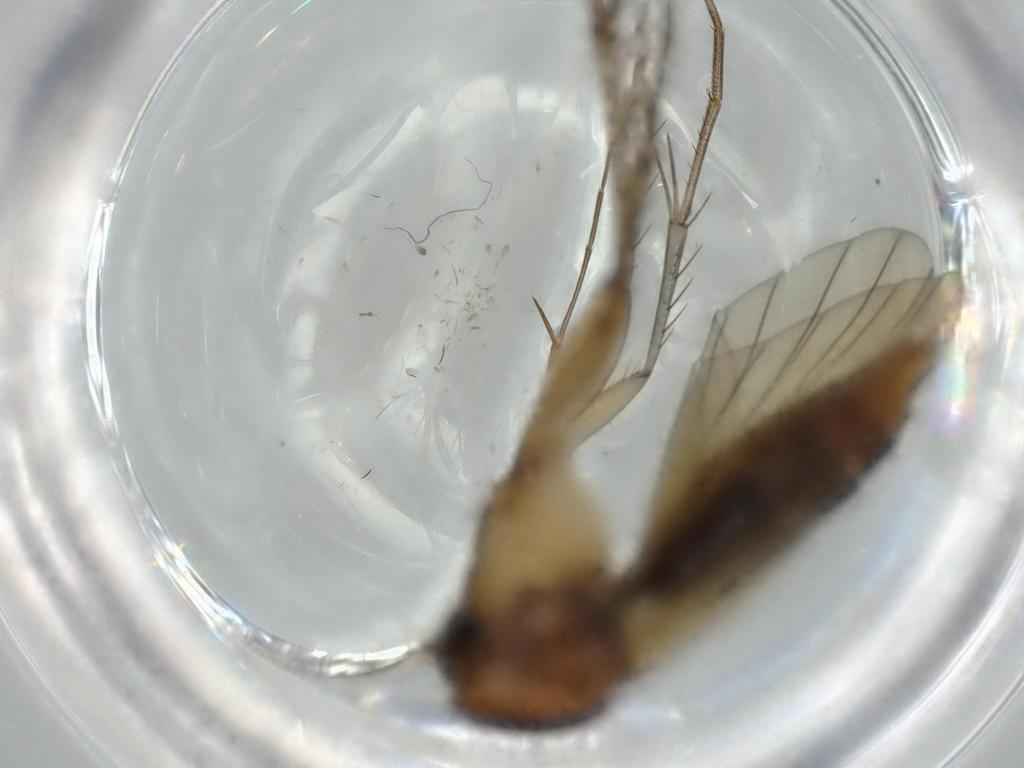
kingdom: Animalia
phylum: Arthropoda
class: Insecta
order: Diptera
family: Phoridae
